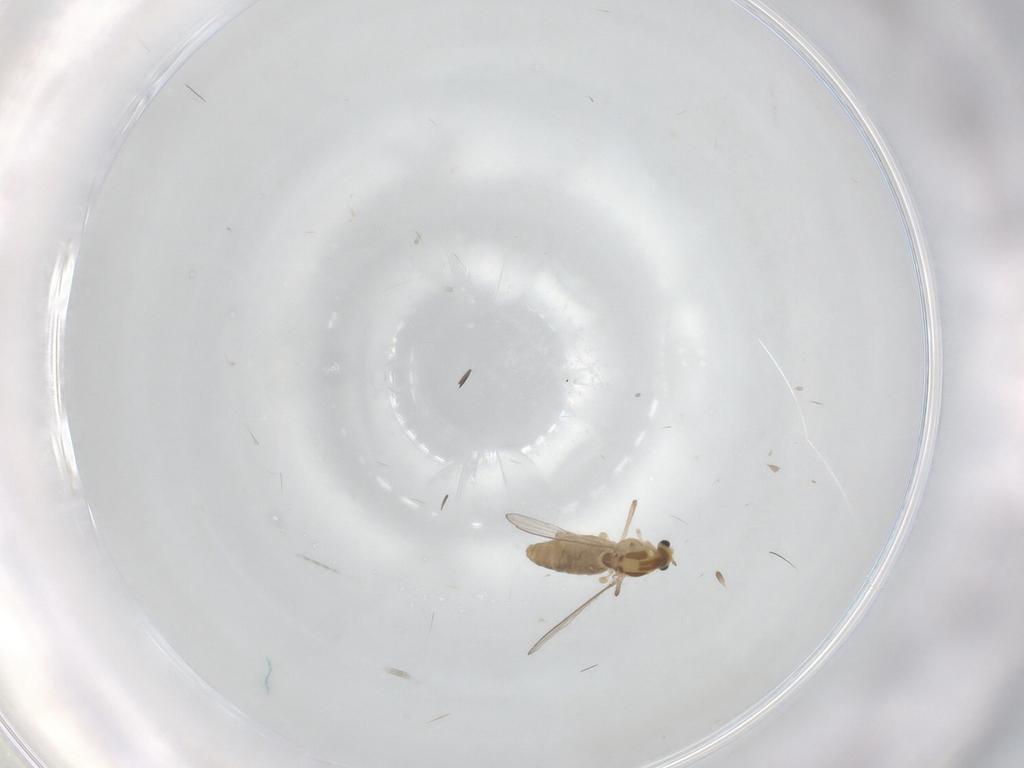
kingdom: Animalia
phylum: Arthropoda
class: Insecta
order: Diptera
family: Chironomidae
